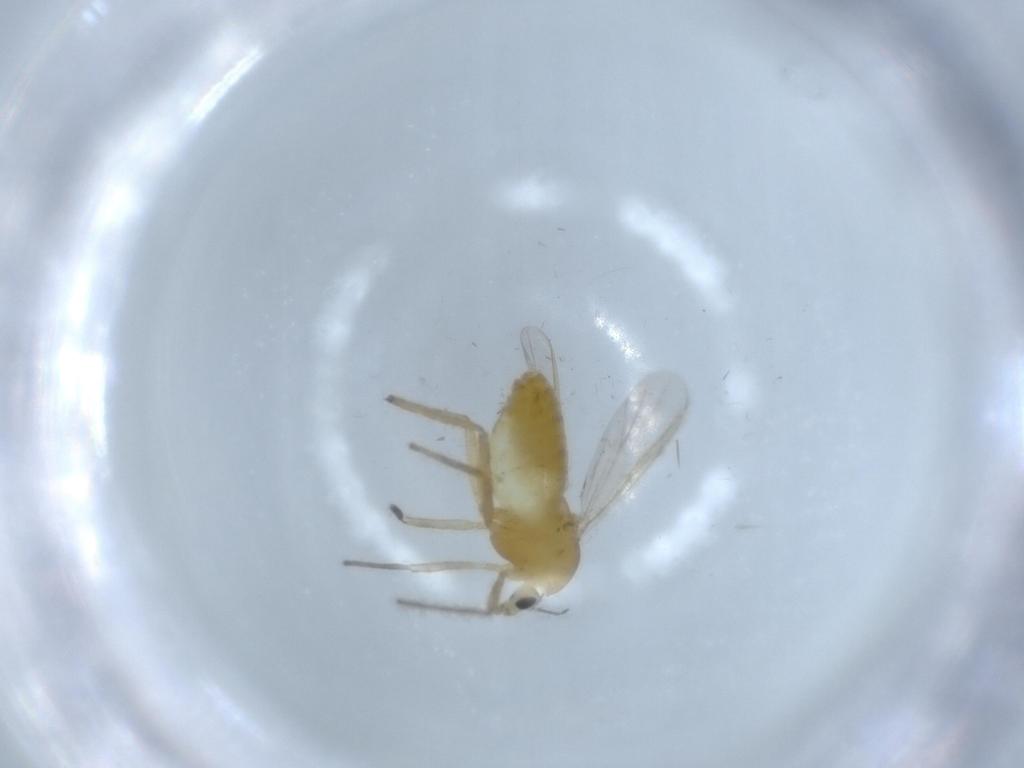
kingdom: Animalia
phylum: Arthropoda
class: Insecta
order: Diptera
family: Chironomidae
